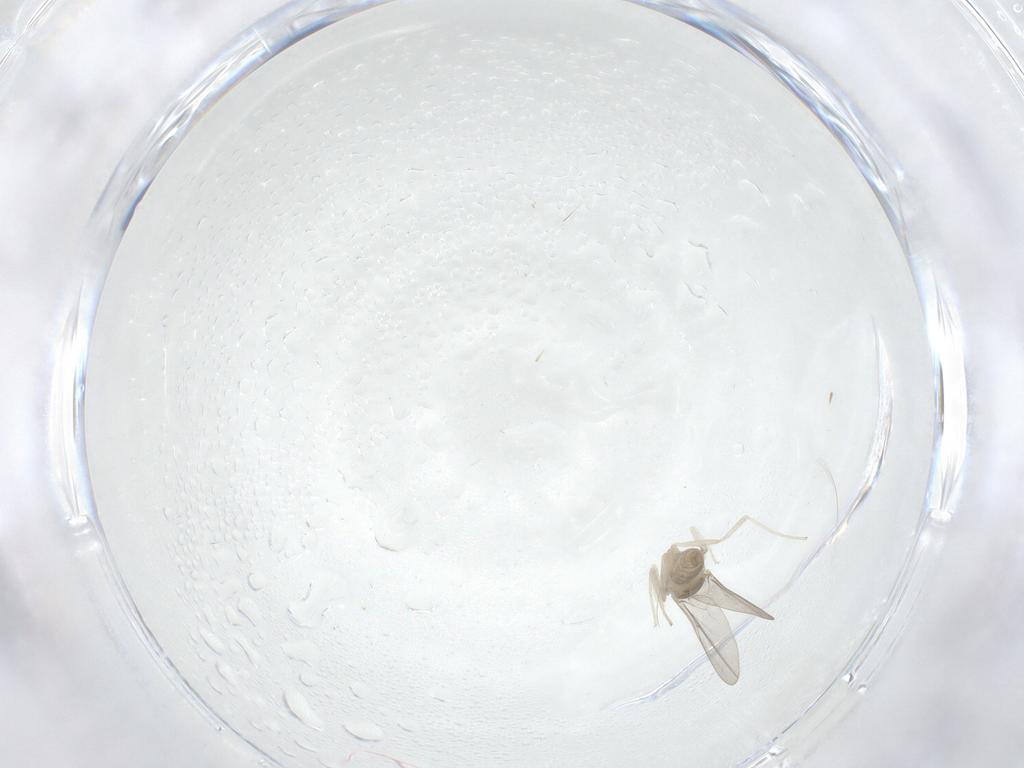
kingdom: Animalia
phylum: Arthropoda
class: Insecta
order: Diptera
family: Cecidomyiidae
